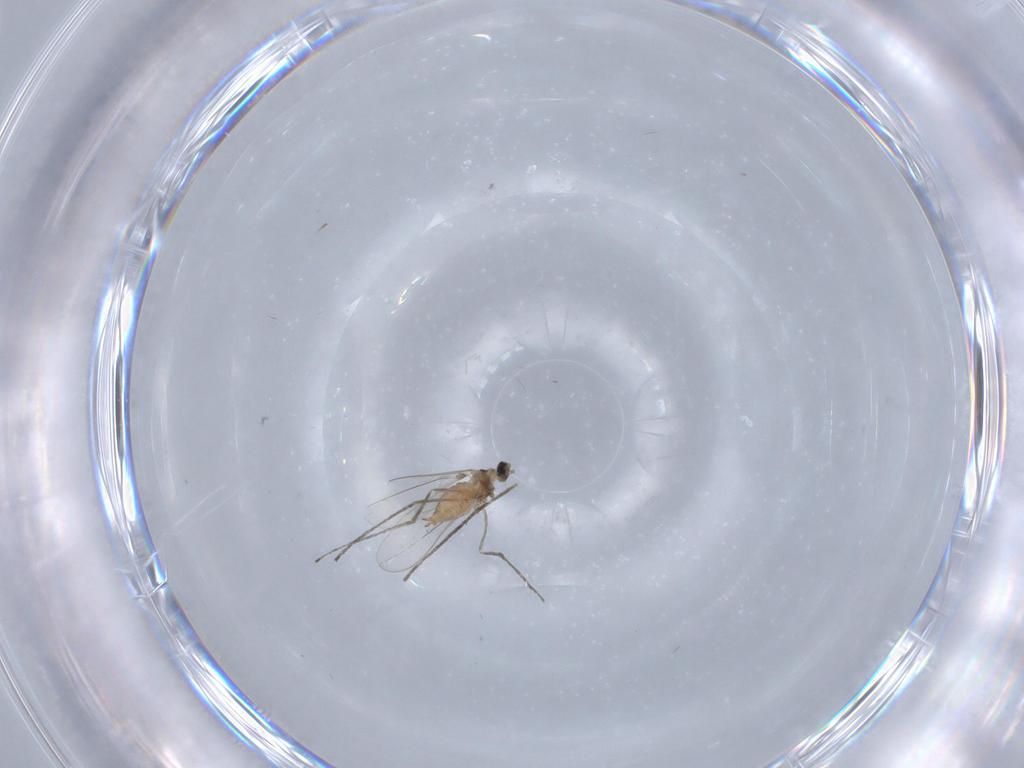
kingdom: Animalia
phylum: Arthropoda
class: Insecta
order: Diptera
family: Cecidomyiidae
